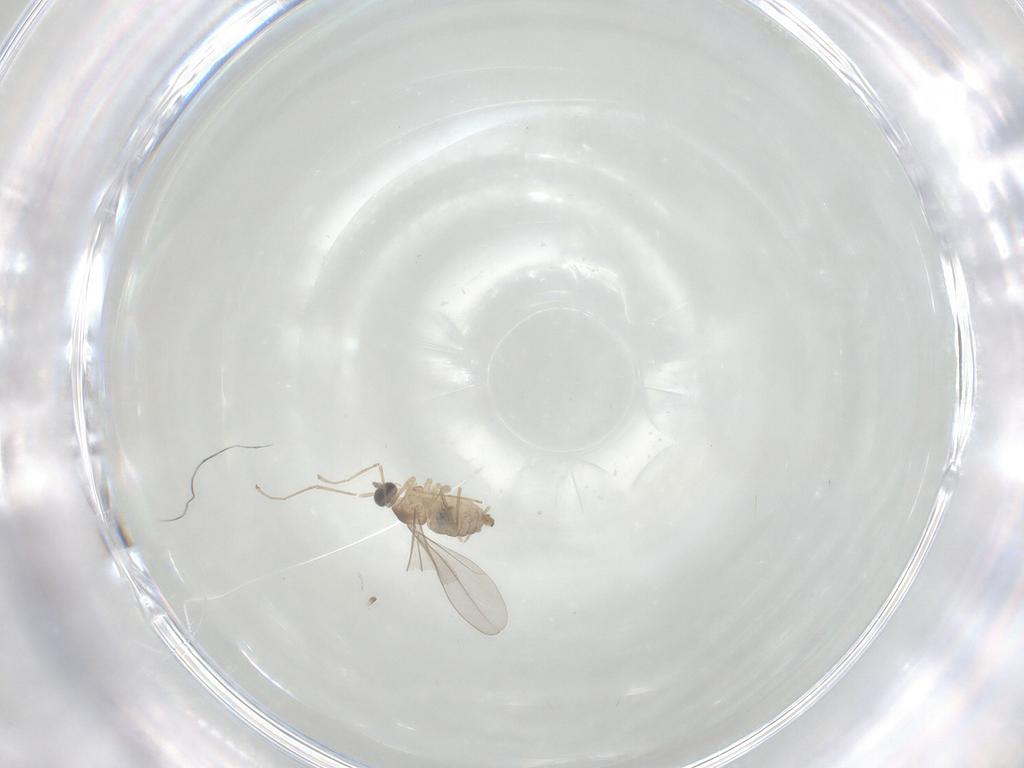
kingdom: Animalia
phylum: Arthropoda
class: Insecta
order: Diptera
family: Cecidomyiidae
